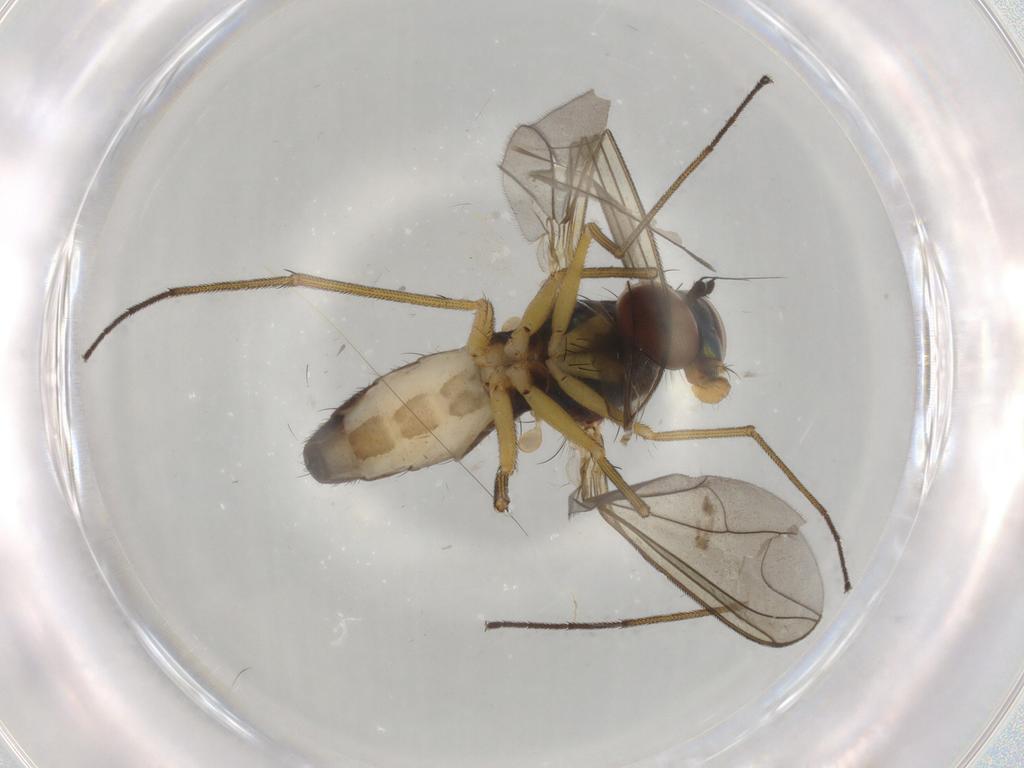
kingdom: Animalia
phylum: Arthropoda
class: Insecta
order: Diptera
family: Dolichopodidae
